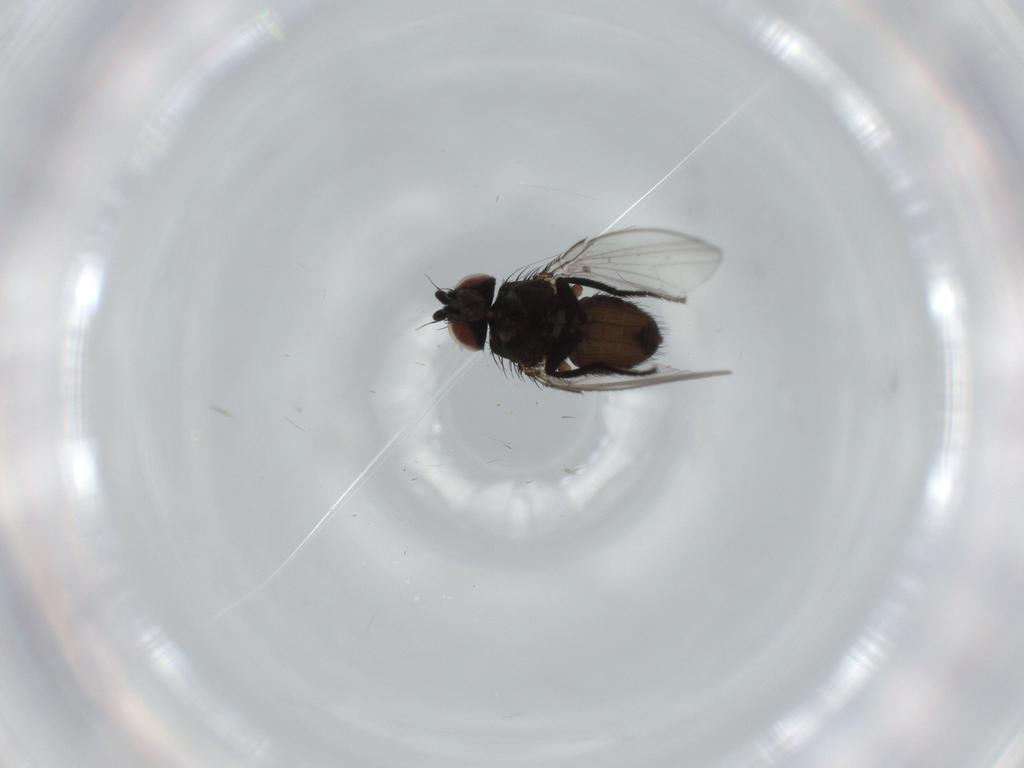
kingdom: Animalia
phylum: Arthropoda
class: Insecta
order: Diptera
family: Milichiidae
